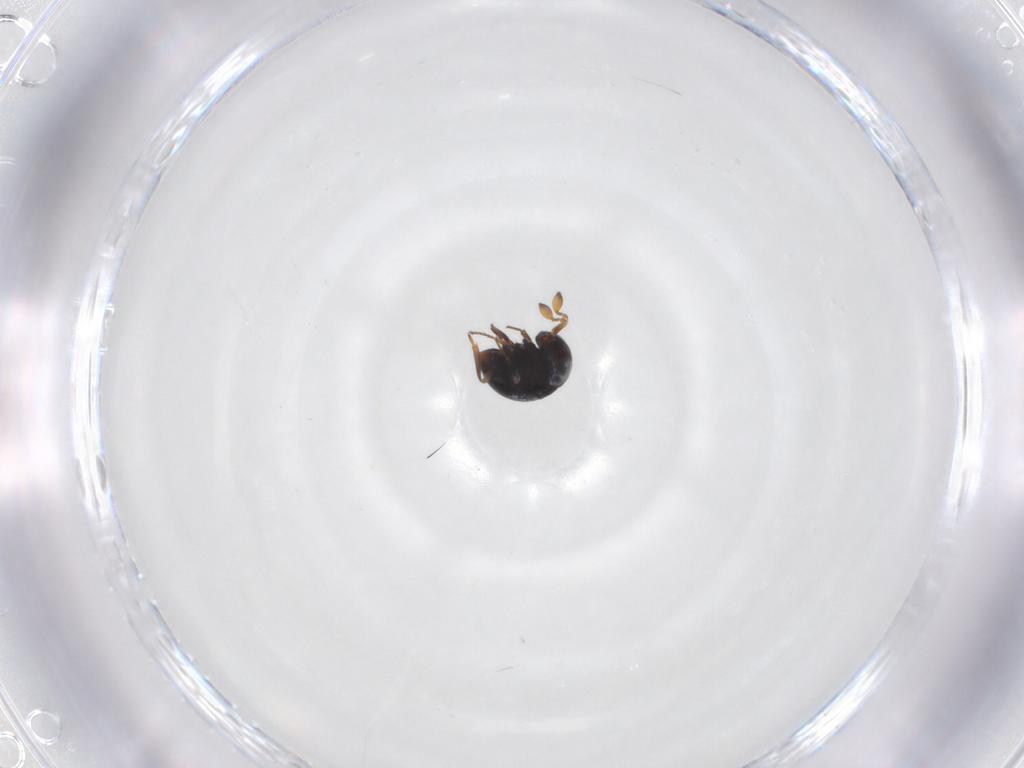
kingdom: Animalia
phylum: Arthropoda
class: Insecta
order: Hymenoptera
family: Scelionidae
